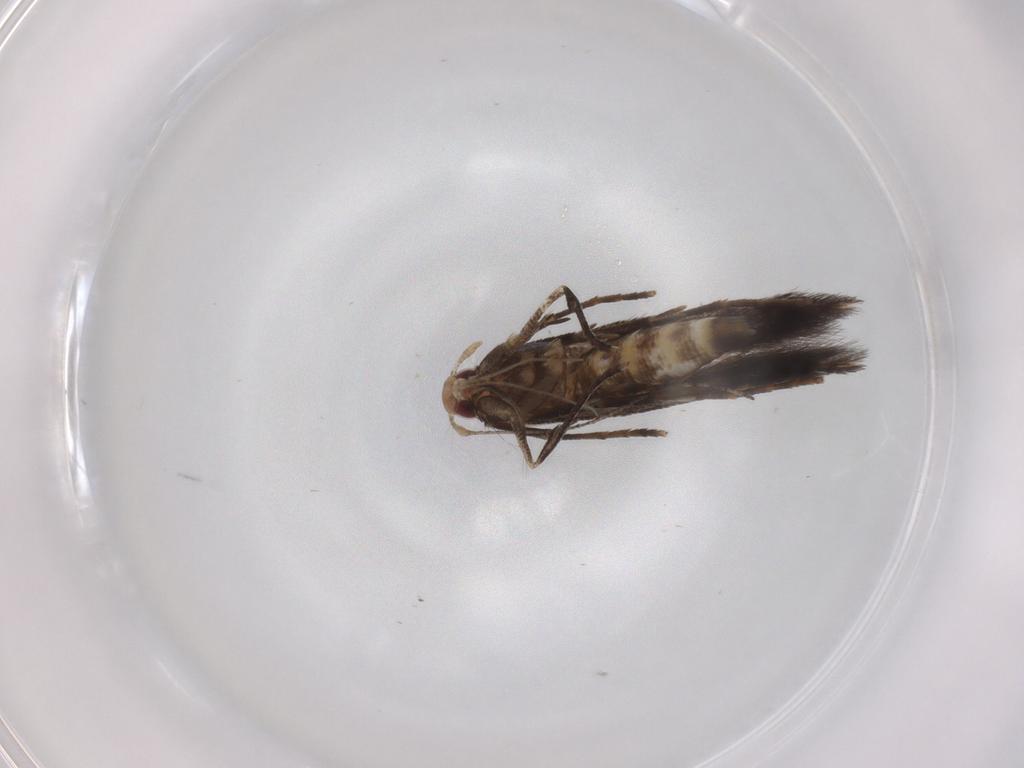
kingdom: Animalia
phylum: Arthropoda
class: Insecta
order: Lepidoptera
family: Cosmopterigidae
